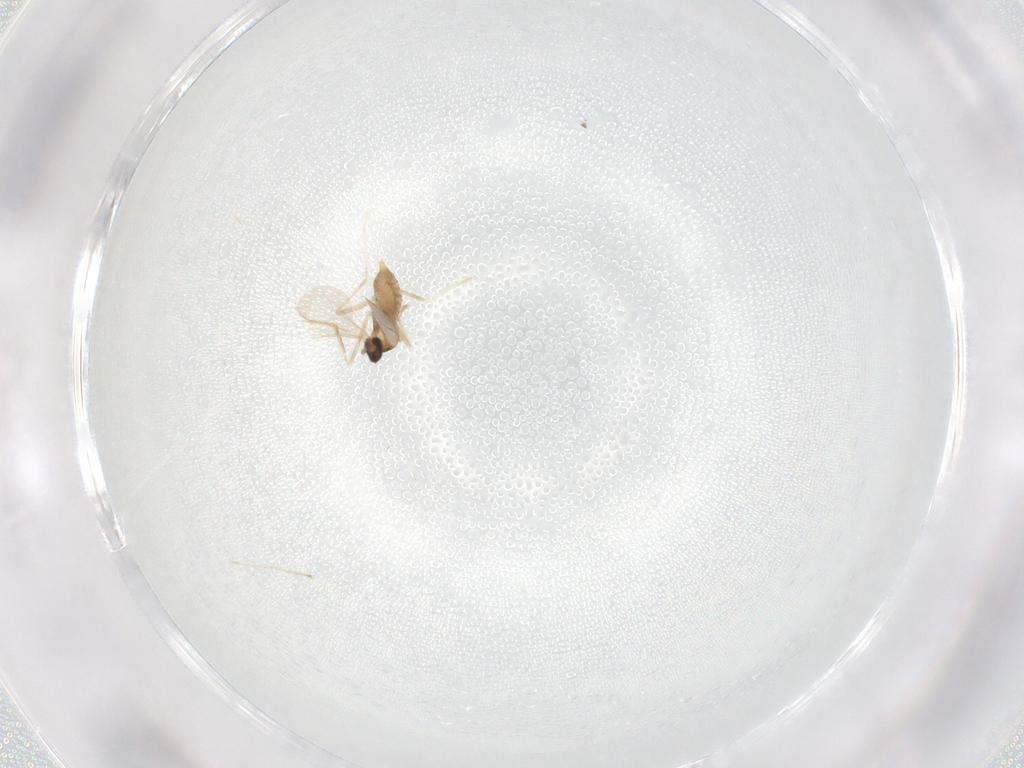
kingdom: Animalia
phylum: Arthropoda
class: Insecta
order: Diptera
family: Cecidomyiidae
